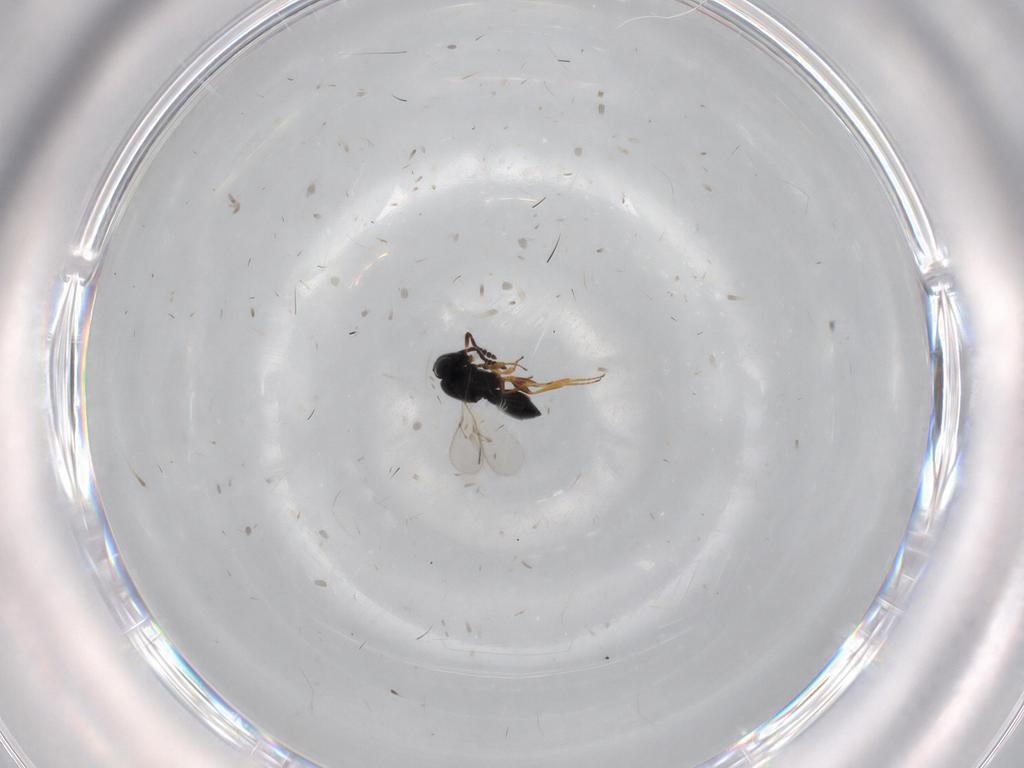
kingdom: Animalia
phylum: Arthropoda
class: Insecta
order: Hymenoptera
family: Scelionidae
